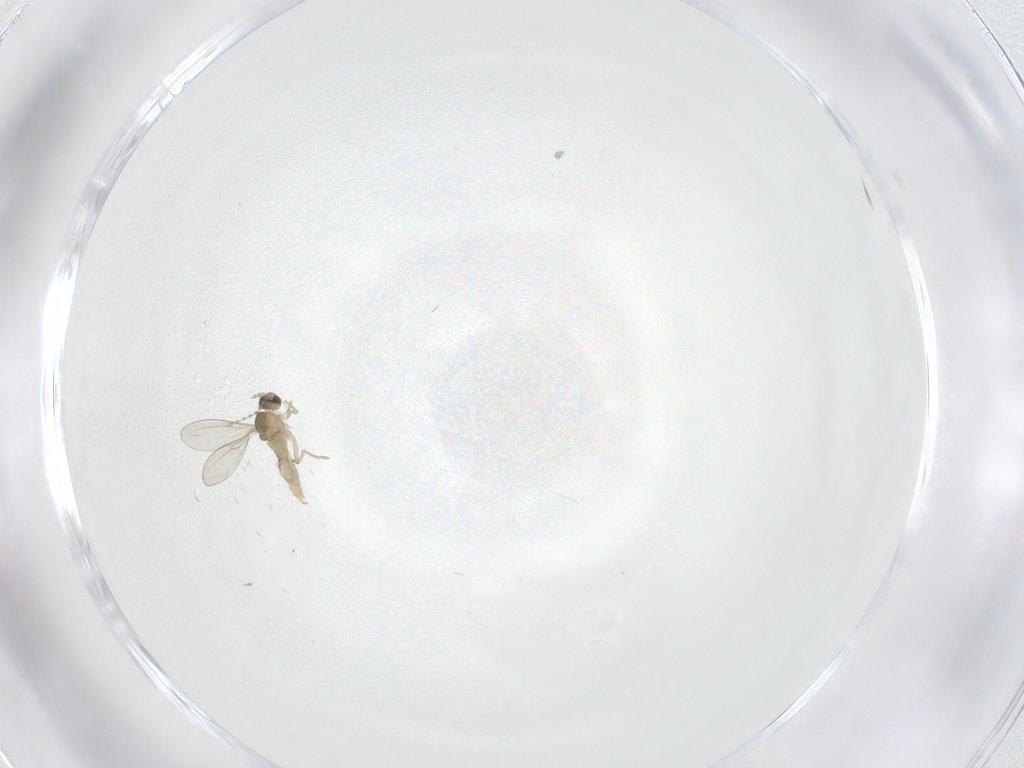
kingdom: Animalia
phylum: Arthropoda
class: Insecta
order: Diptera
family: Cecidomyiidae
